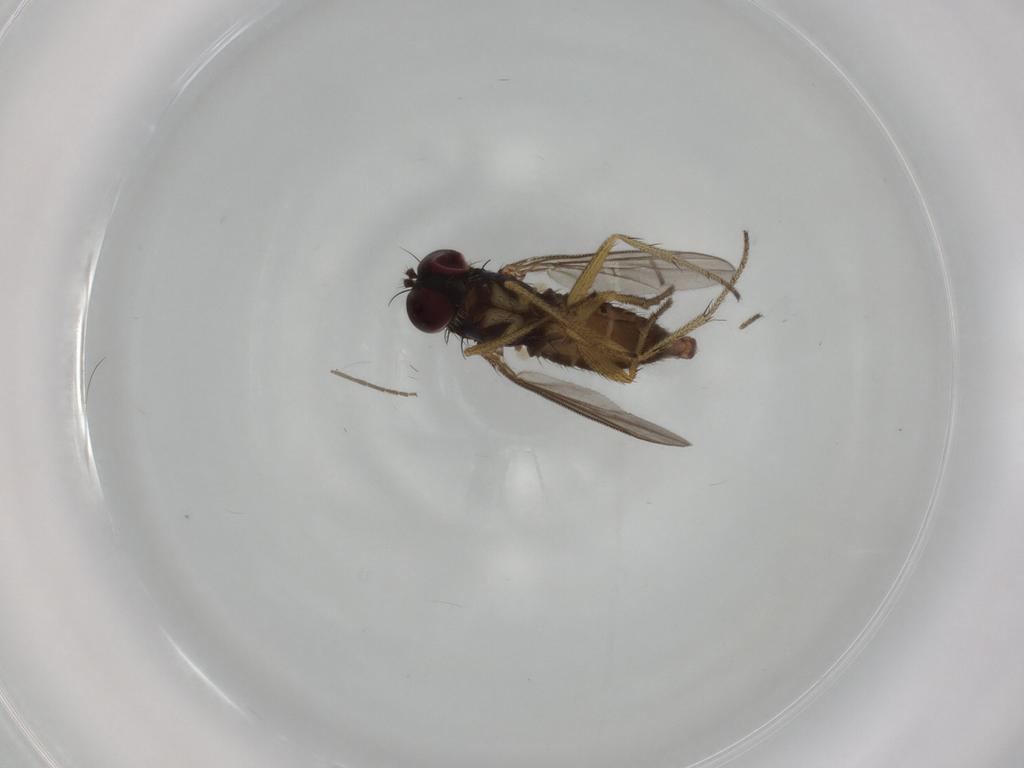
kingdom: Animalia
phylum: Arthropoda
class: Insecta
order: Diptera
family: Dolichopodidae
